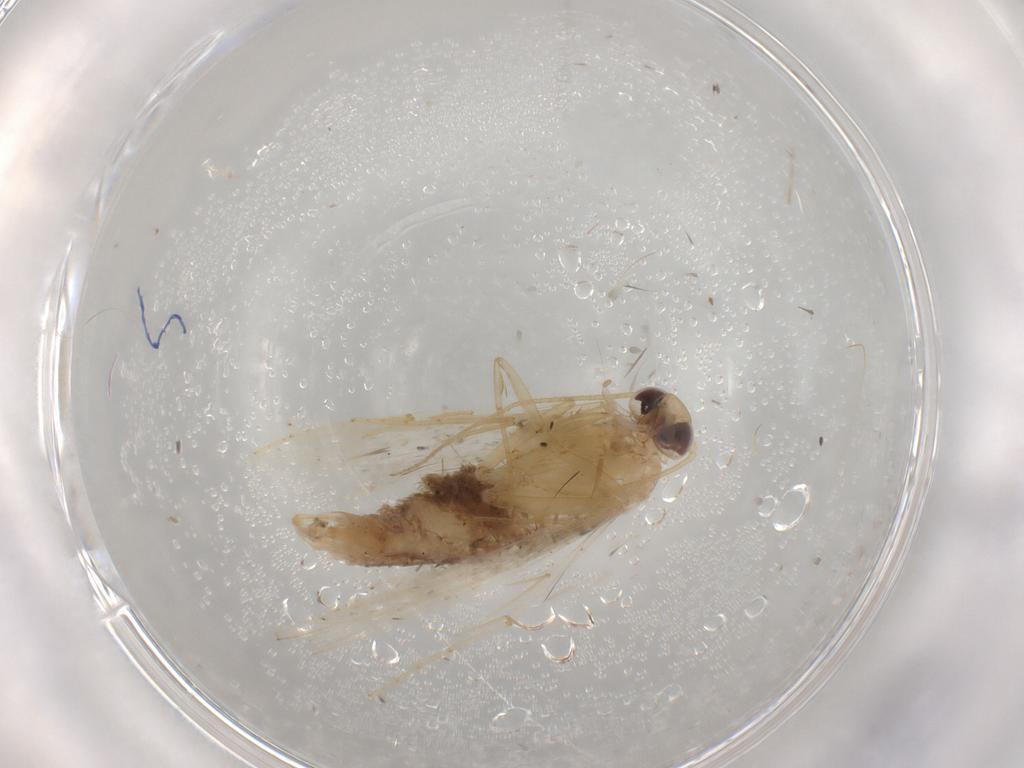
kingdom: Animalia
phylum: Arthropoda
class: Insecta
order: Lepidoptera
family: Erebidae
